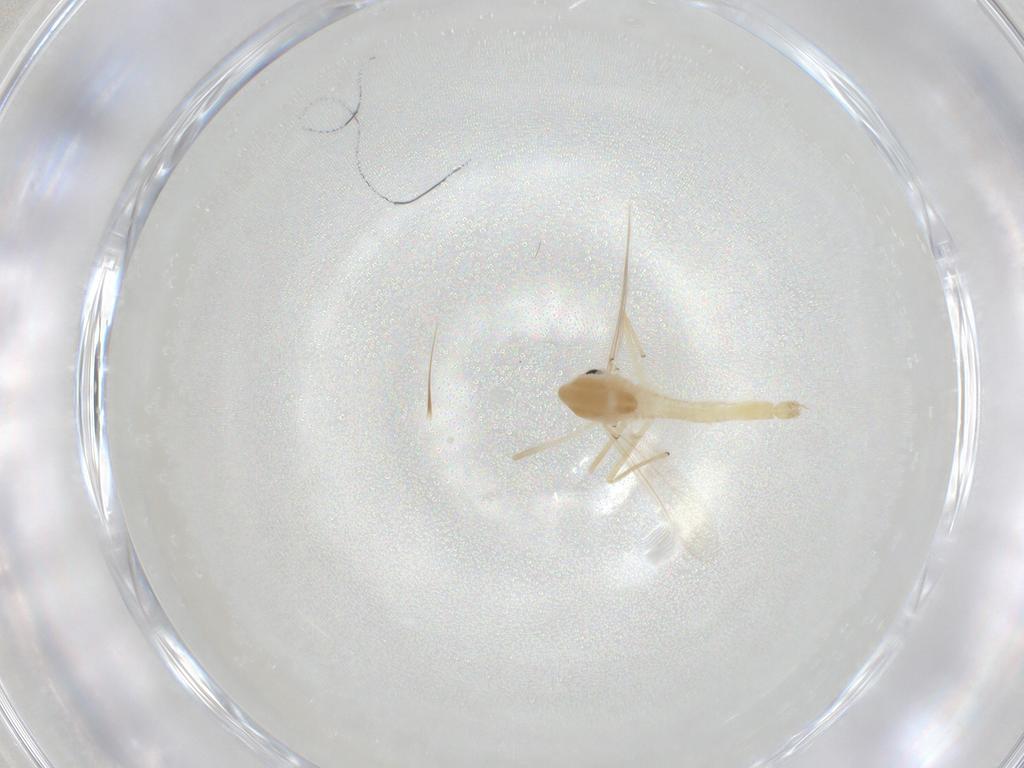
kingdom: Animalia
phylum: Arthropoda
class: Insecta
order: Diptera
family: Chironomidae
